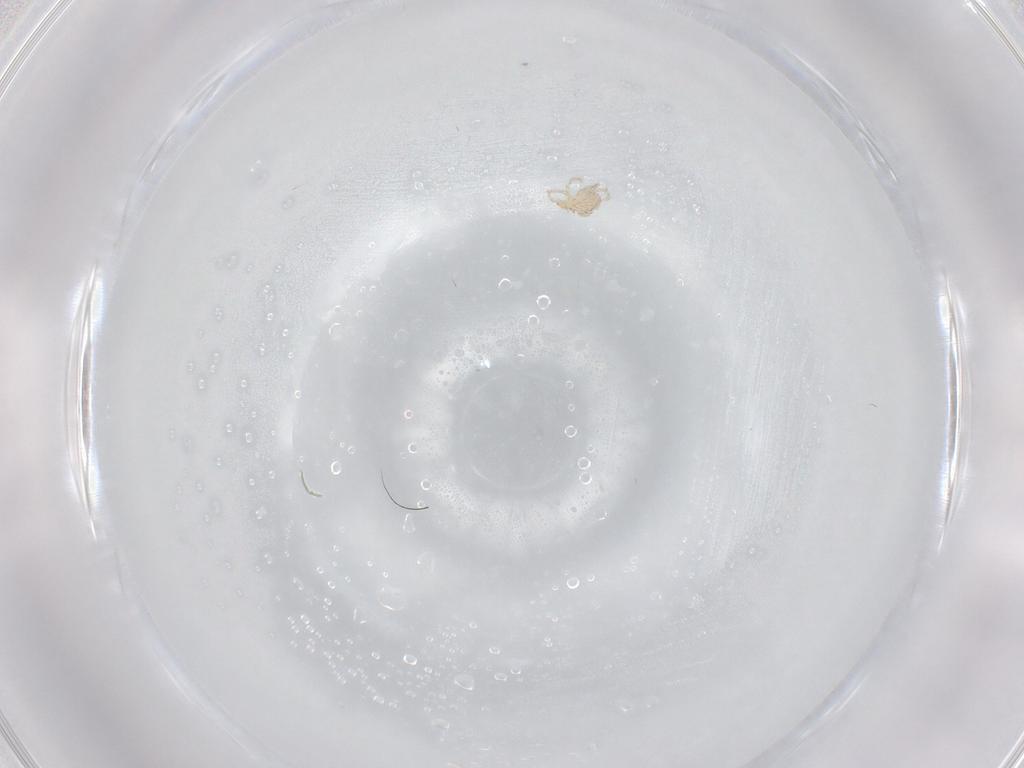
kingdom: Animalia
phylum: Arthropoda
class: Arachnida
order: Trombidiformes
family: Erythraeidae
